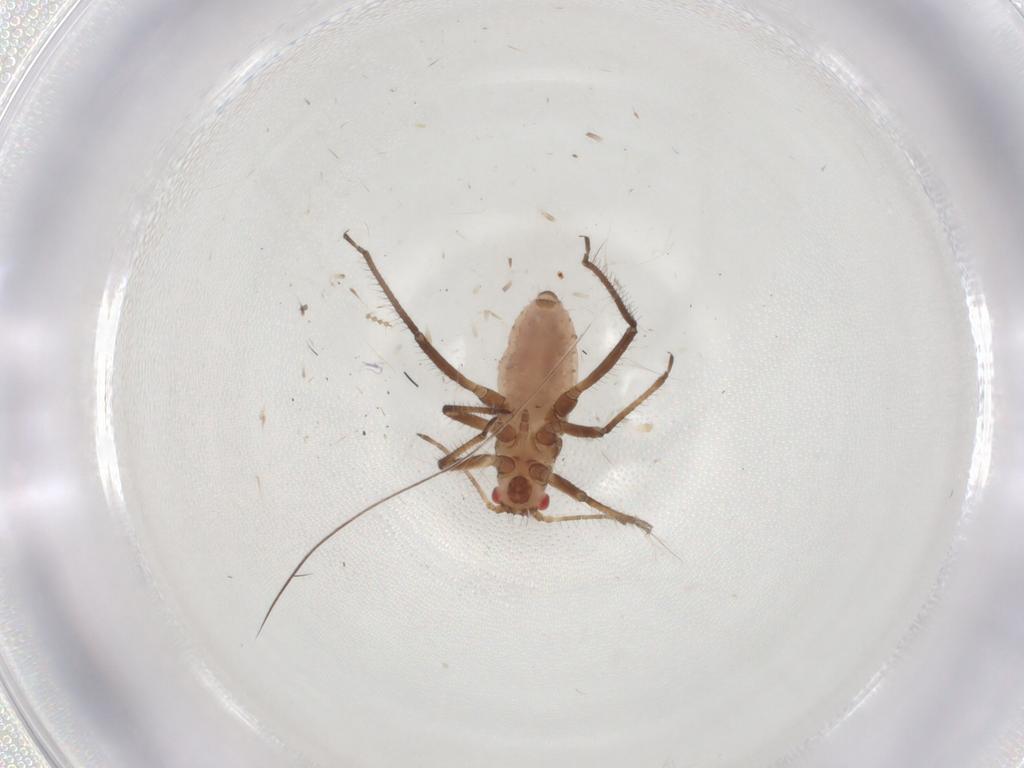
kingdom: Animalia
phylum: Arthropoda
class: Insecta
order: Hemiptera
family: Aphididae
